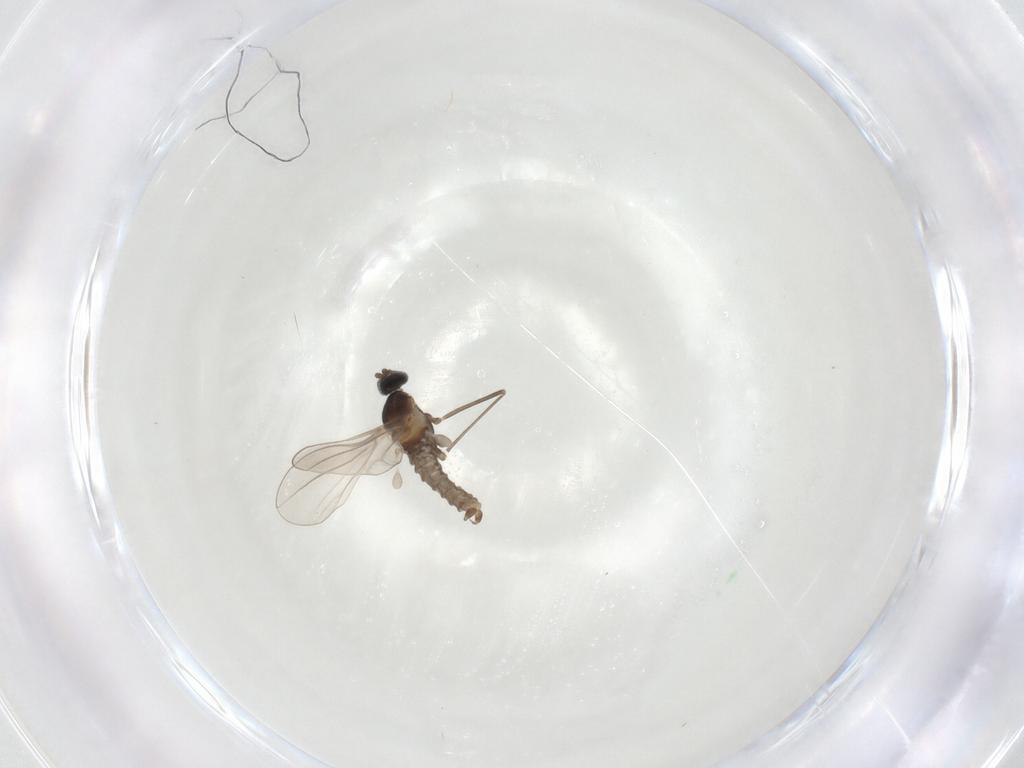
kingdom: Animalia
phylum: Arthropoda
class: Insecta
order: Diptera
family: Cecidomyiidae
